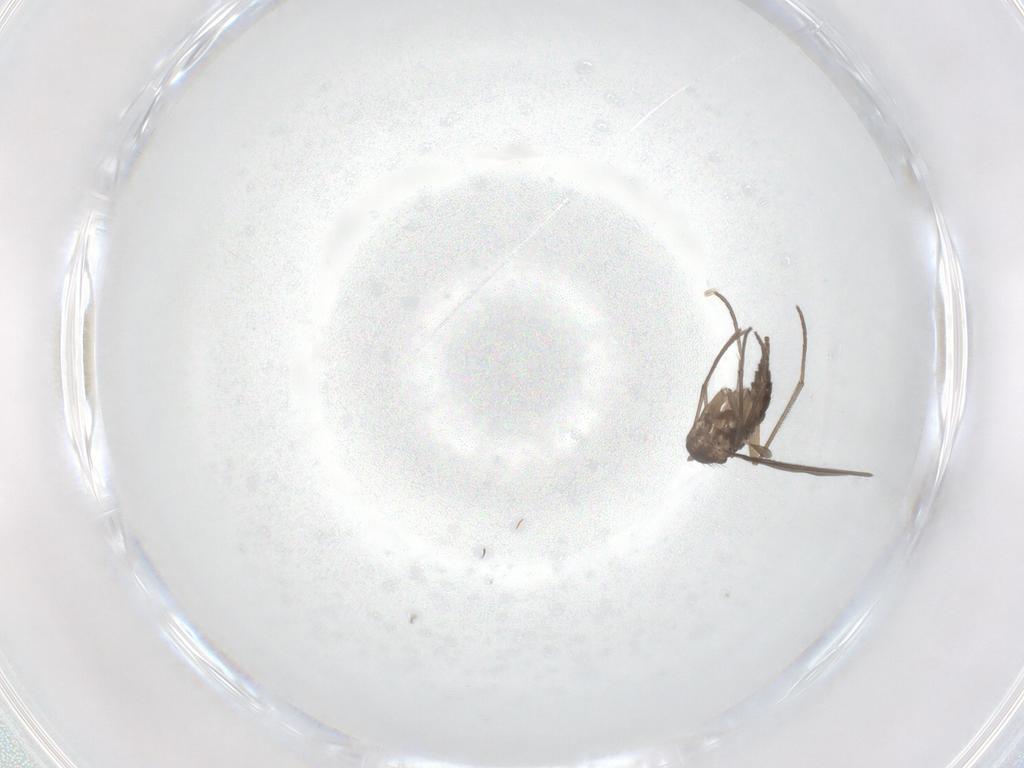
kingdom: Animalia
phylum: Arthropoda
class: Insecta
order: Diptera
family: Sciaridae
